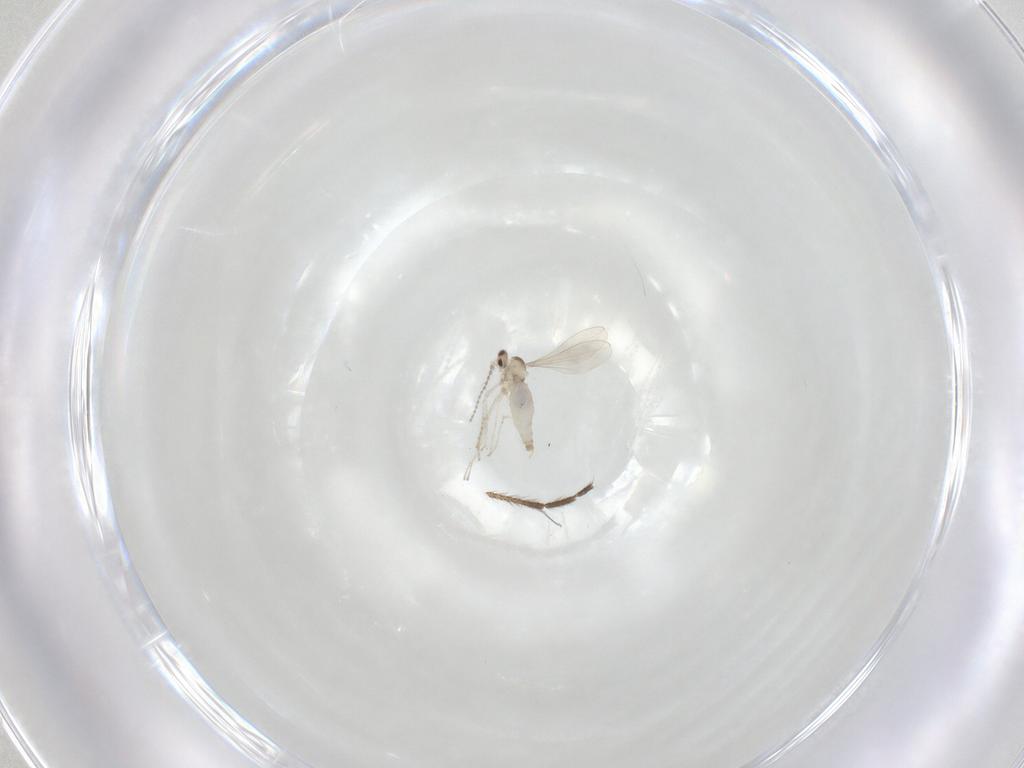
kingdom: Animalia
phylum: Arthropoda
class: Insecta
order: Diptera
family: Cecidomyiidae
